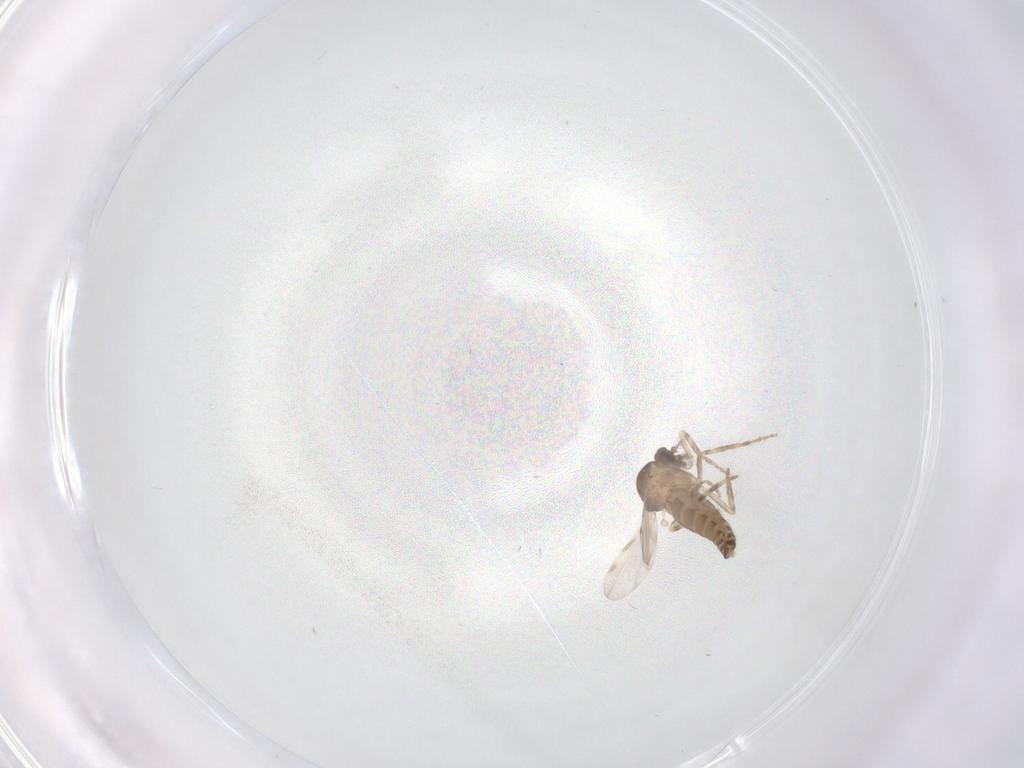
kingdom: Animalia
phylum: Arthropoda
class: Insecta
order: Diptera
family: Ceratopogonidae
